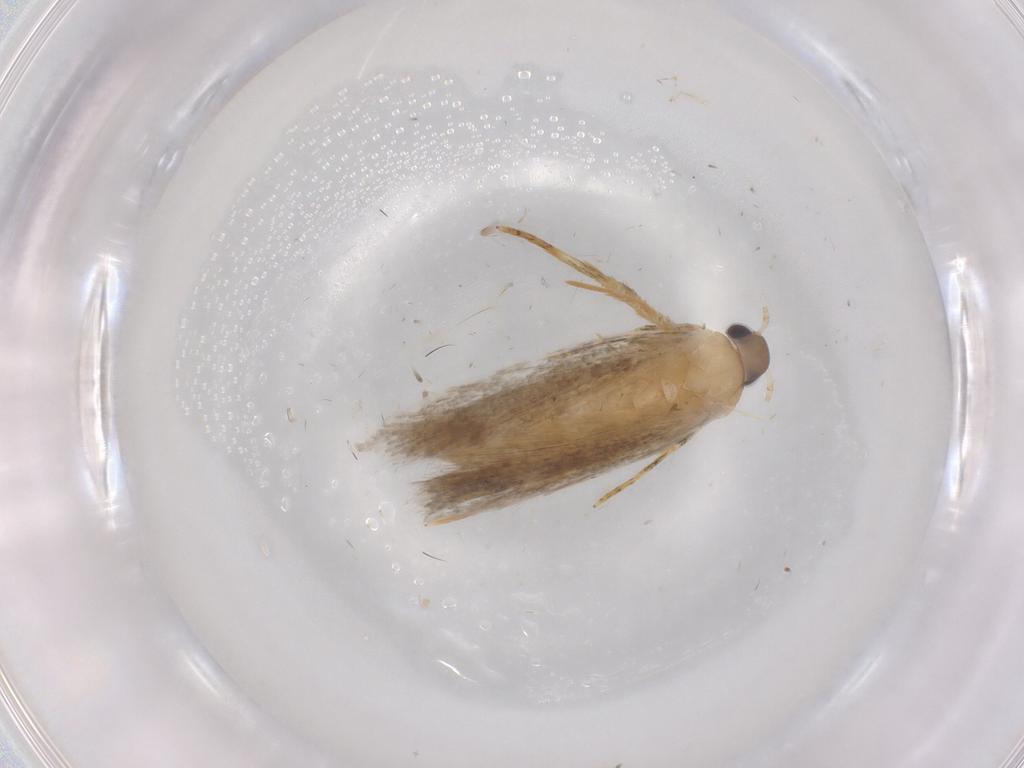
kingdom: Animalia
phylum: Arthropoda
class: Insecta
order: Lepidoptera
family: Autostichidae
